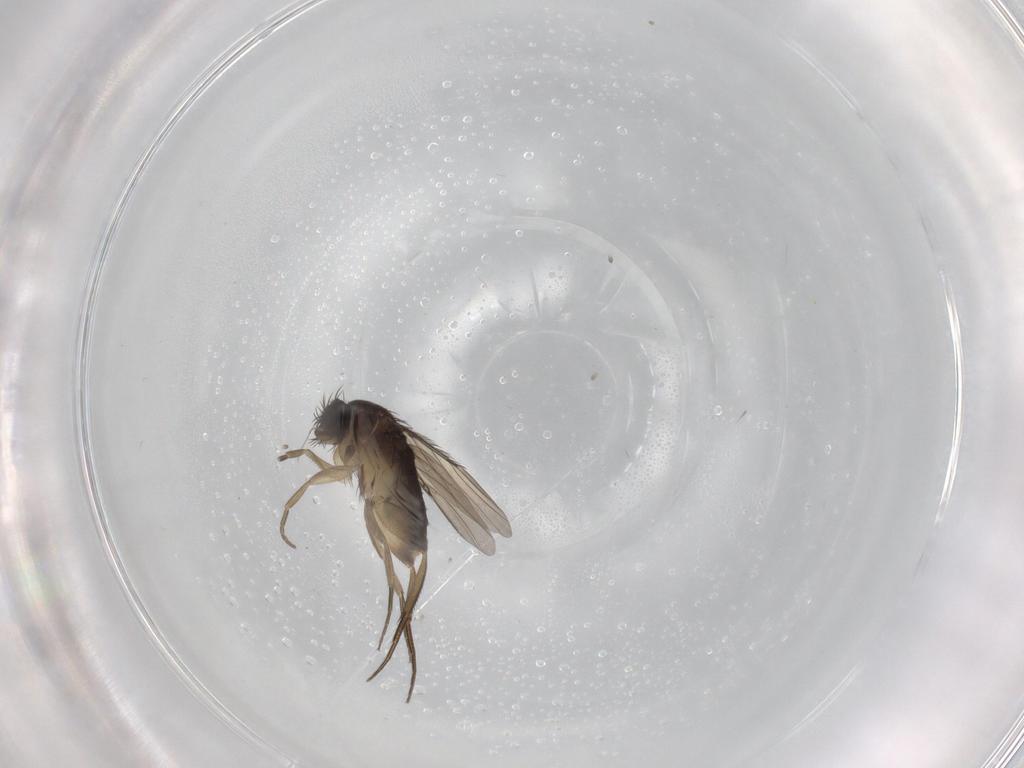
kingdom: Animalia
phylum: Arthropoda
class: Insecta
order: Diptera
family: Phoridae
